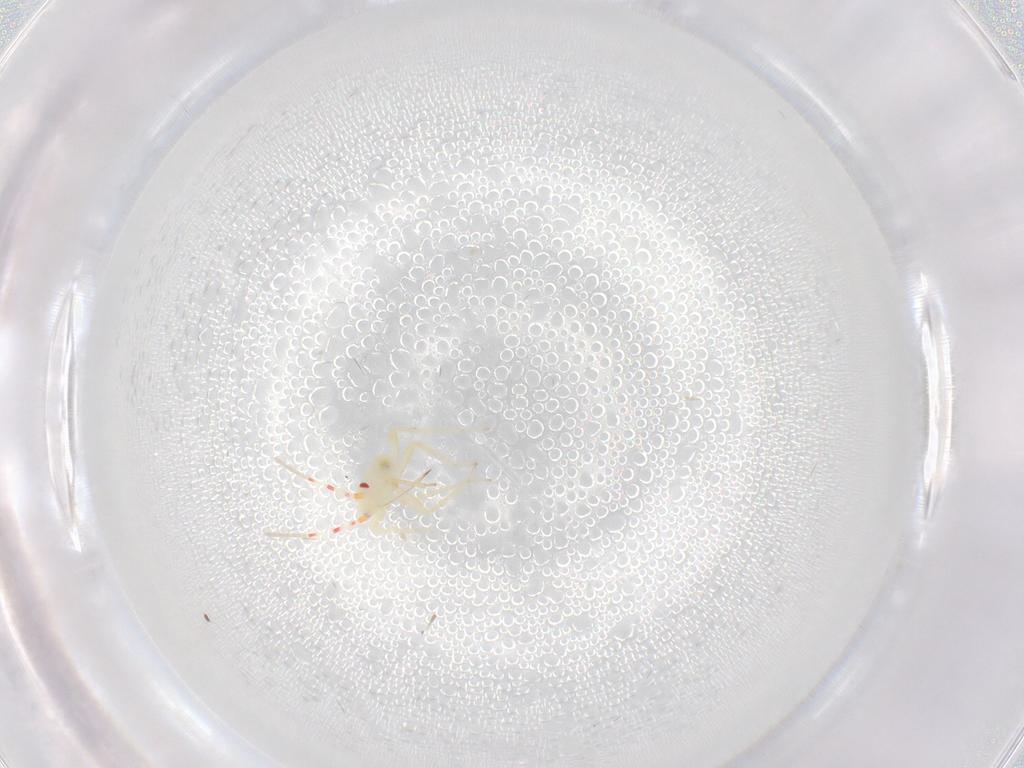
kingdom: Animalia
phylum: Arthropoda
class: Insecta
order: Hemiptera
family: Miridae
